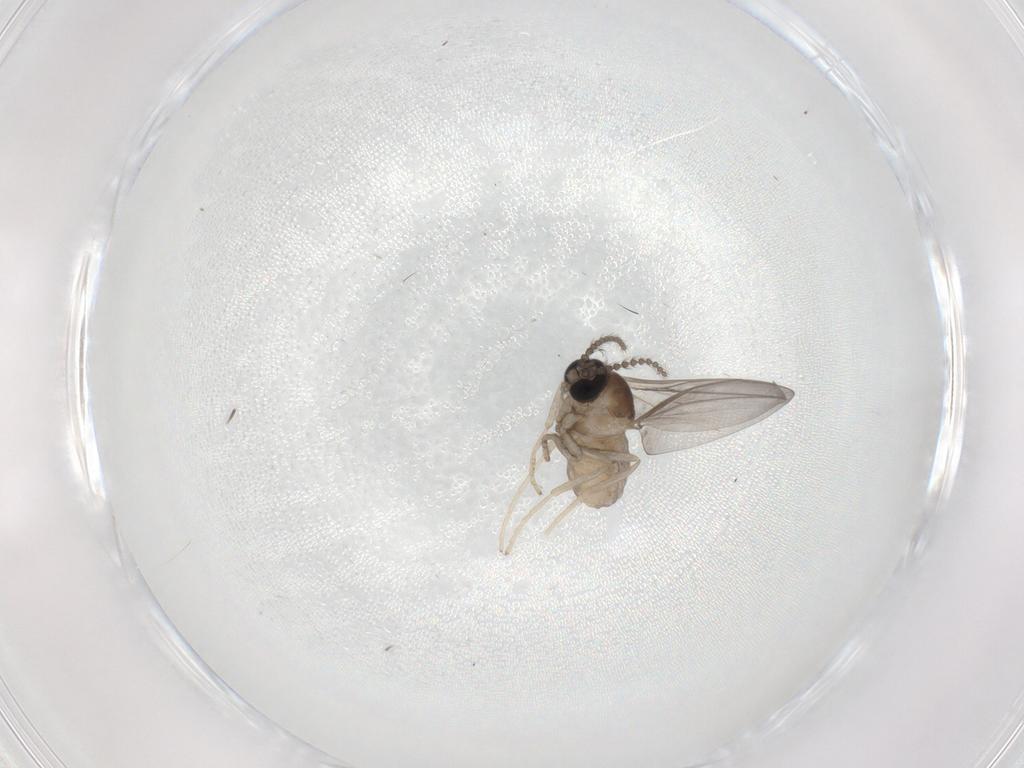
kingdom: Animalia
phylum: Arthropoda
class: Insecta
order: Diptera
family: Cecidomyiidae
